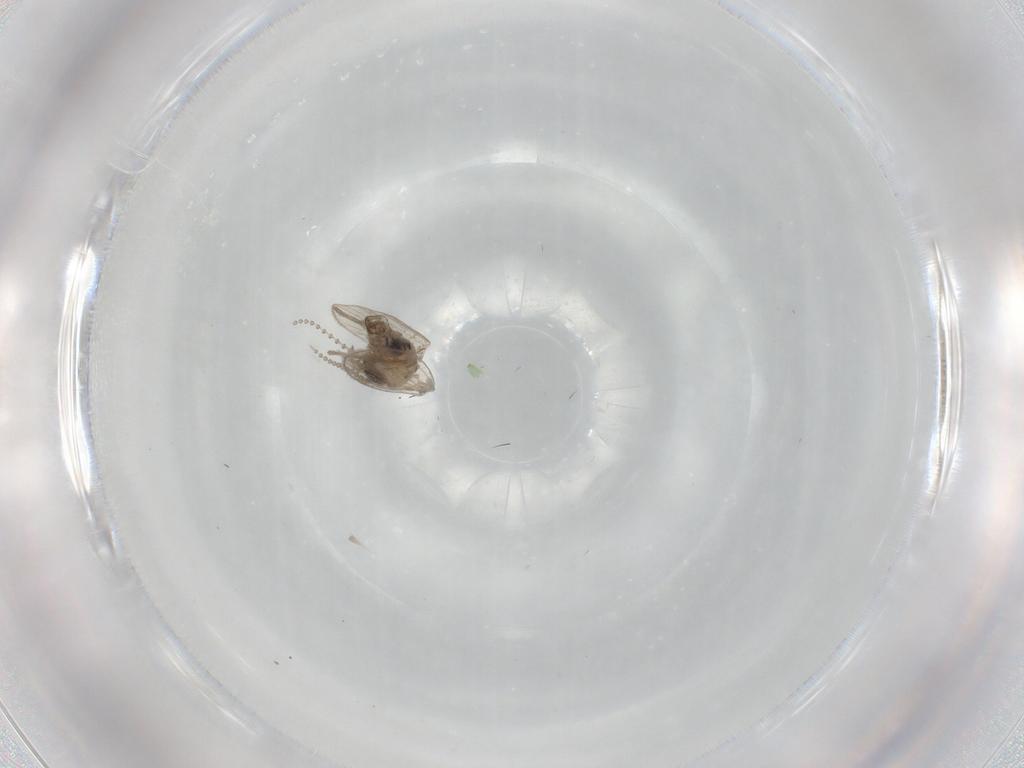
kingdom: Animalia
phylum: Arthropoda
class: Insecta
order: Diptera
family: Psychodidae
